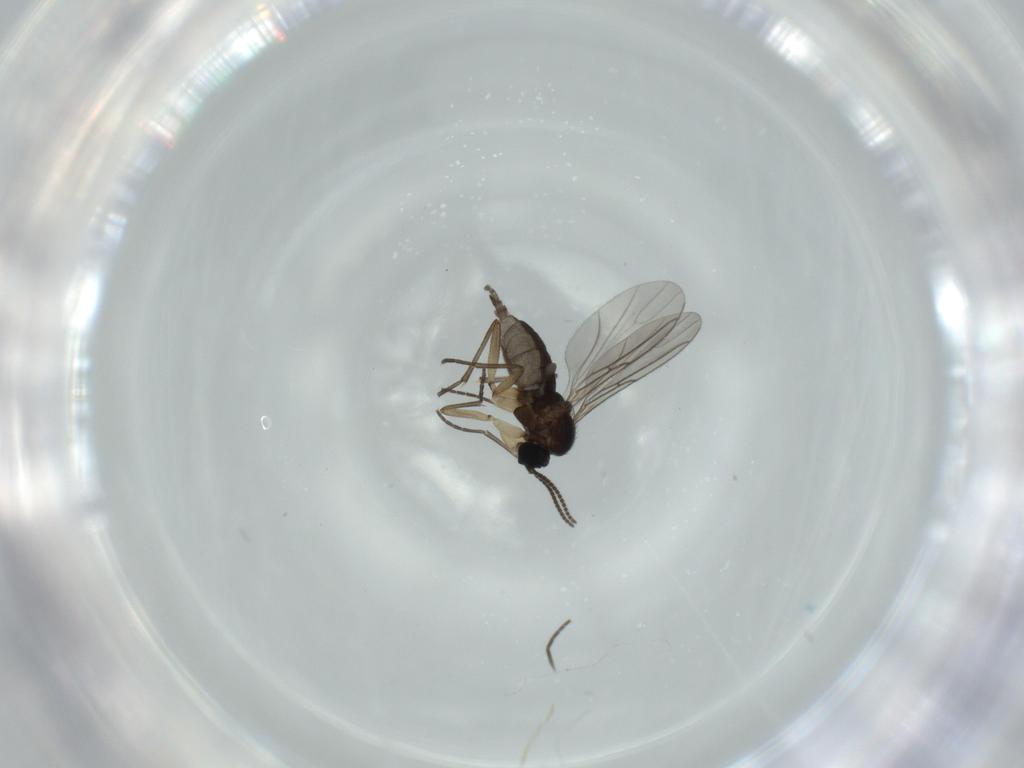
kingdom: Animalia
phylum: Arthropoda
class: Insecta
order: Diptera
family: Sciaridae
